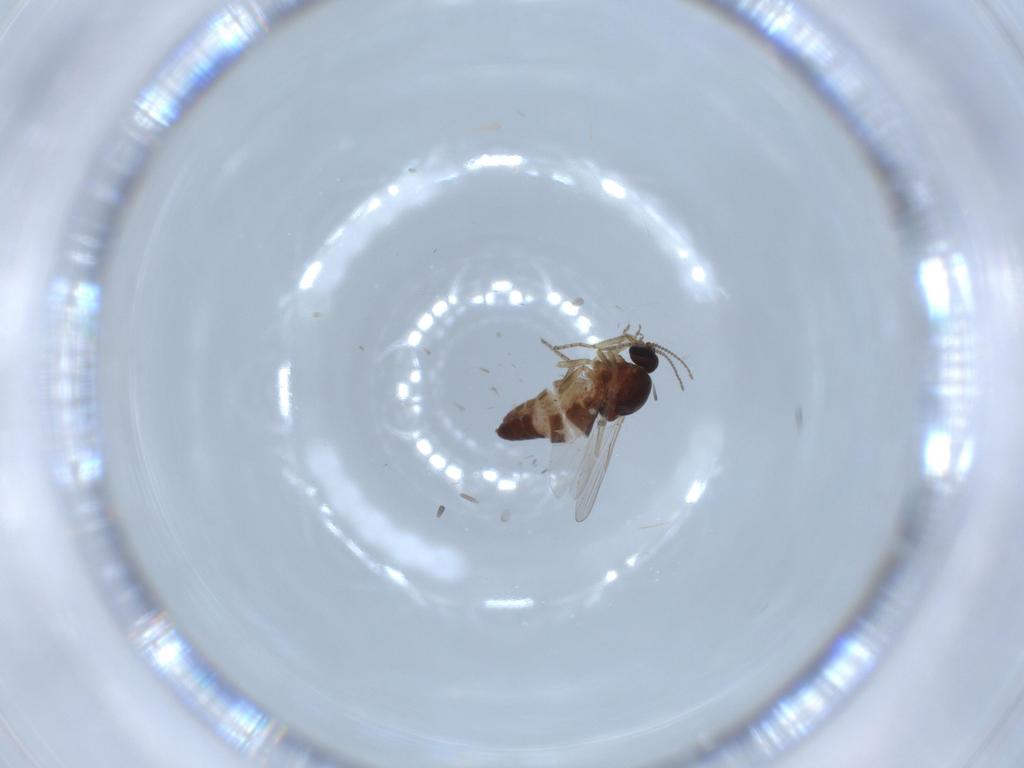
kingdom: Animalia
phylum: Arthropoda
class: Insecta
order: Diptera
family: Ceratopogonidae
